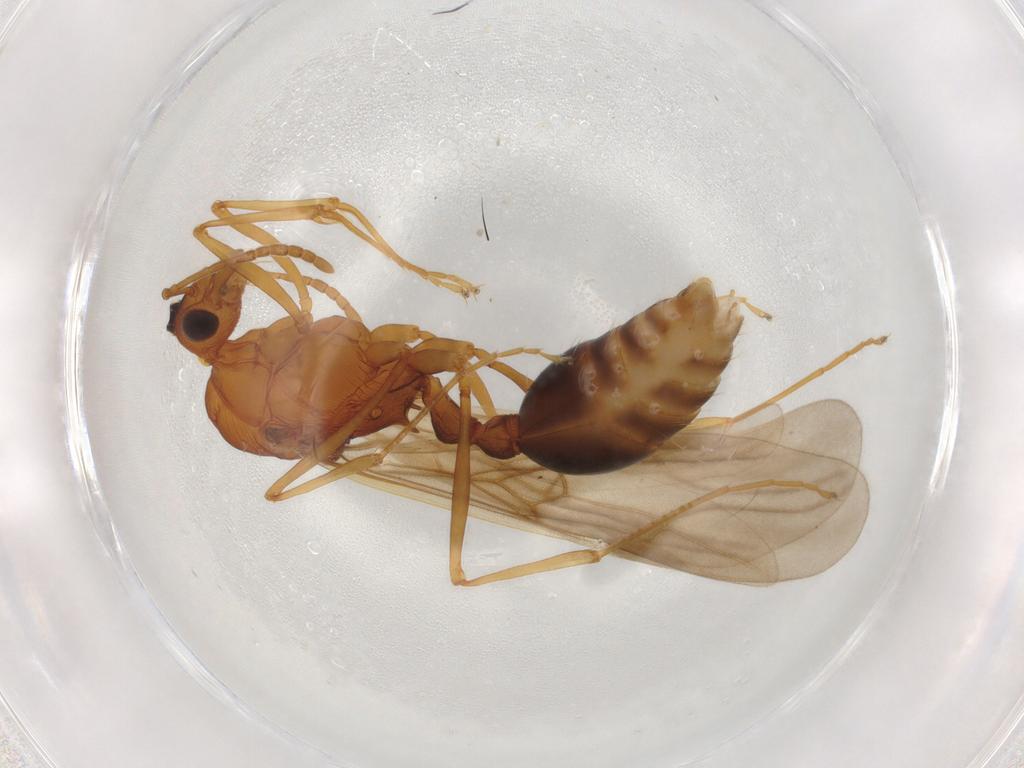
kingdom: Animalia
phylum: Arthropoda
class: Insecta
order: Hymenoptera
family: Formicidae
